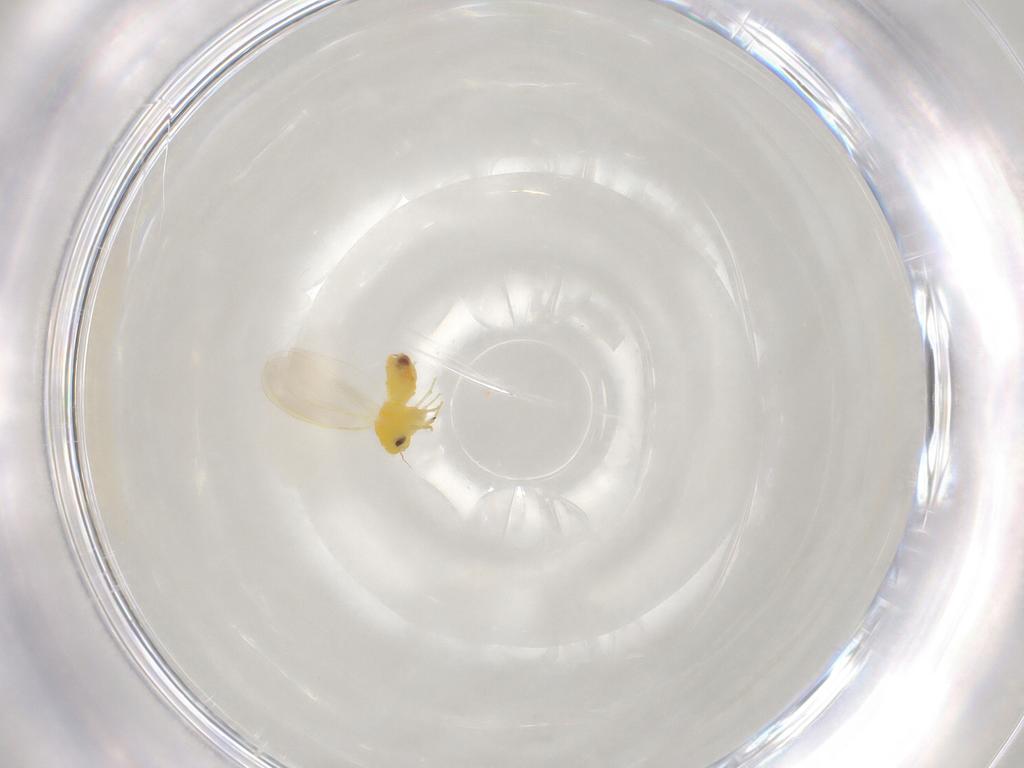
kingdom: Animalia
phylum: Arthropoda
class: Insecta
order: Hemiptera
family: Aleyrodidae
